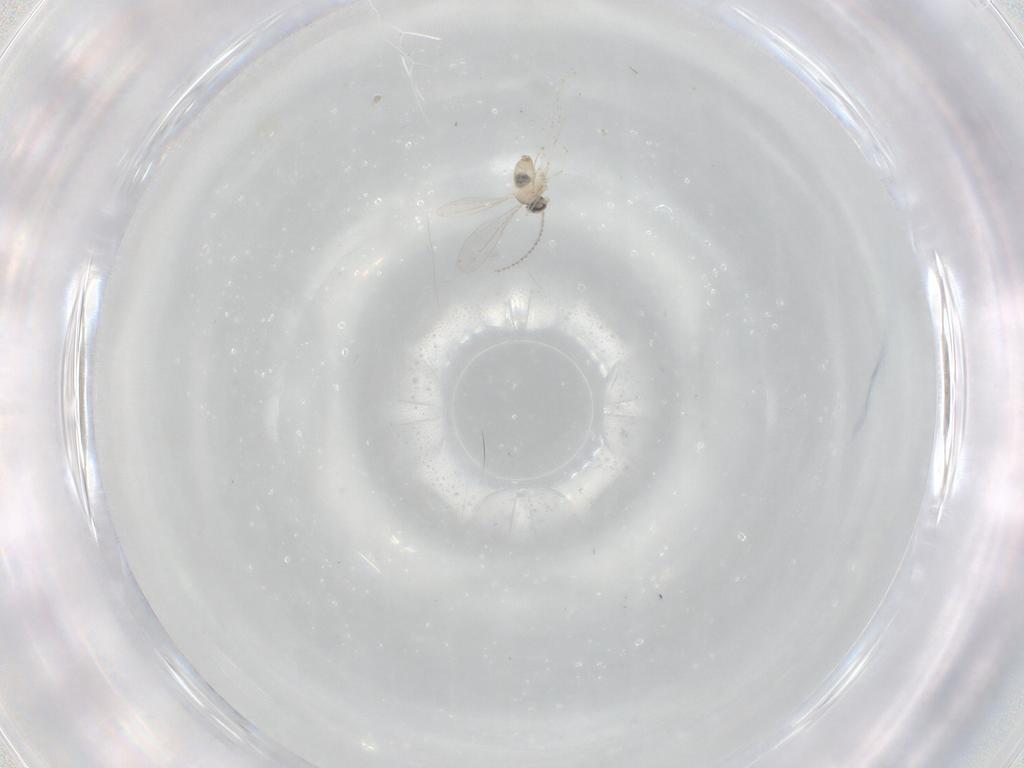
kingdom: Animalia
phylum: Arthropoda
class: Insecta
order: Diptera
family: Cecidomyiidae
